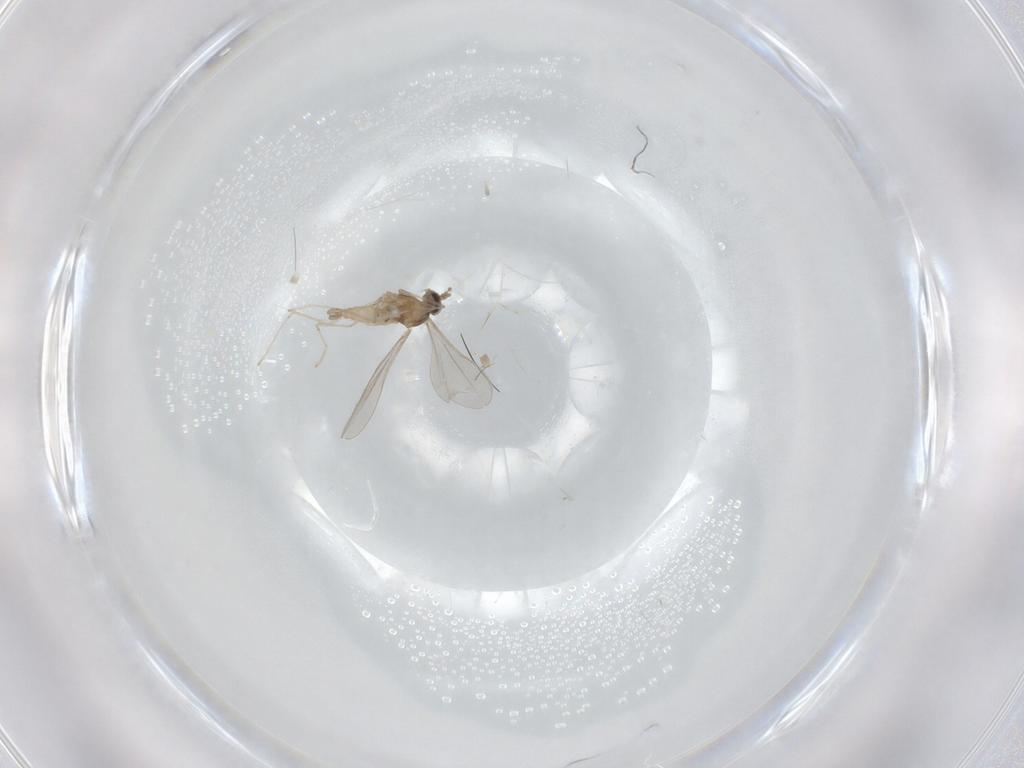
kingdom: Animalia
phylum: Arthropoda
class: Insecta
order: Diptera
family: Cecidomyiidae
